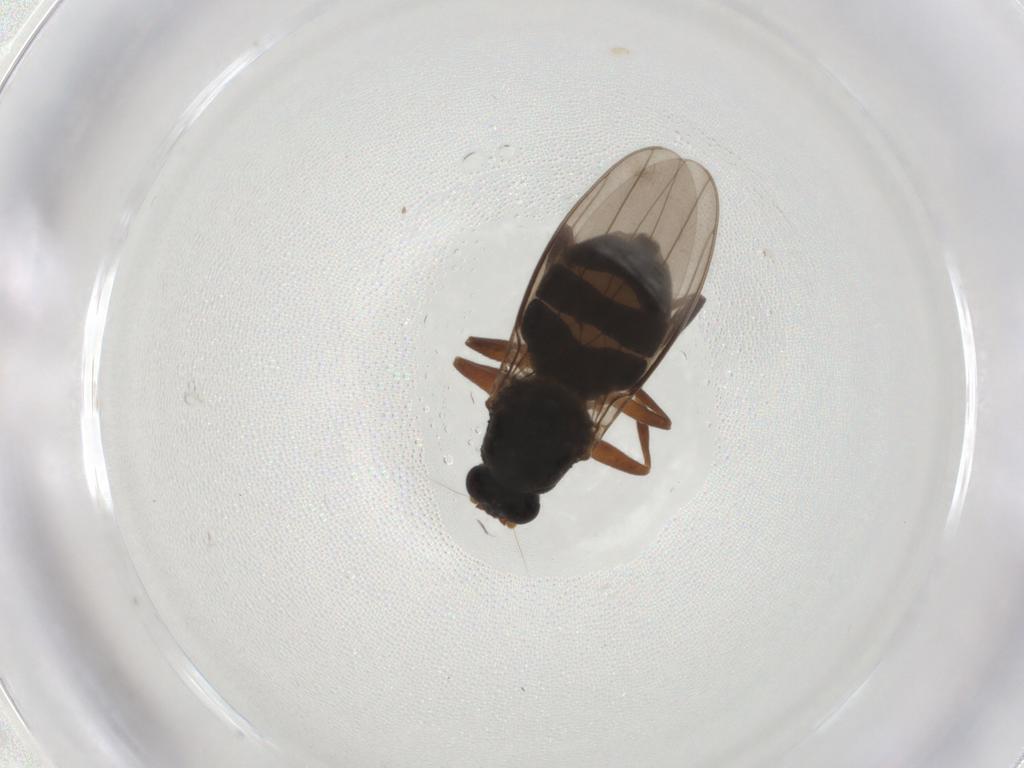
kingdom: Animalia
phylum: Arthropoda
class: Insecta
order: Diptera
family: Sphaeroceridae
